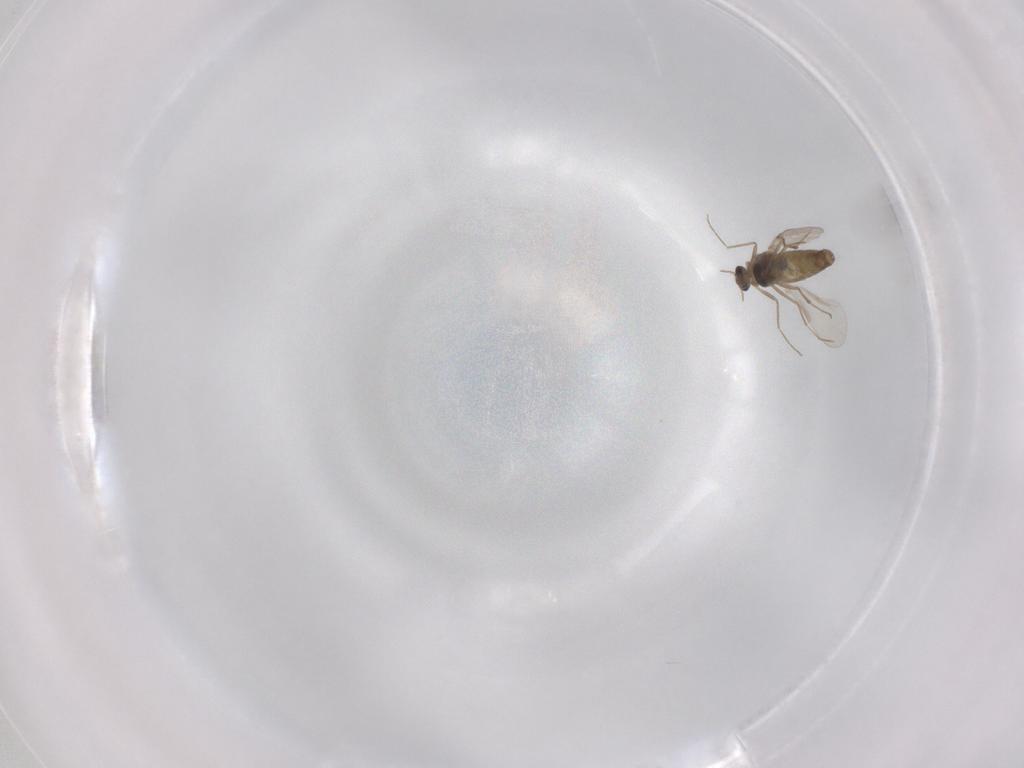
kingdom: Animalia
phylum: Arthropoda
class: Insecta
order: Diptera
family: Chironomidae
